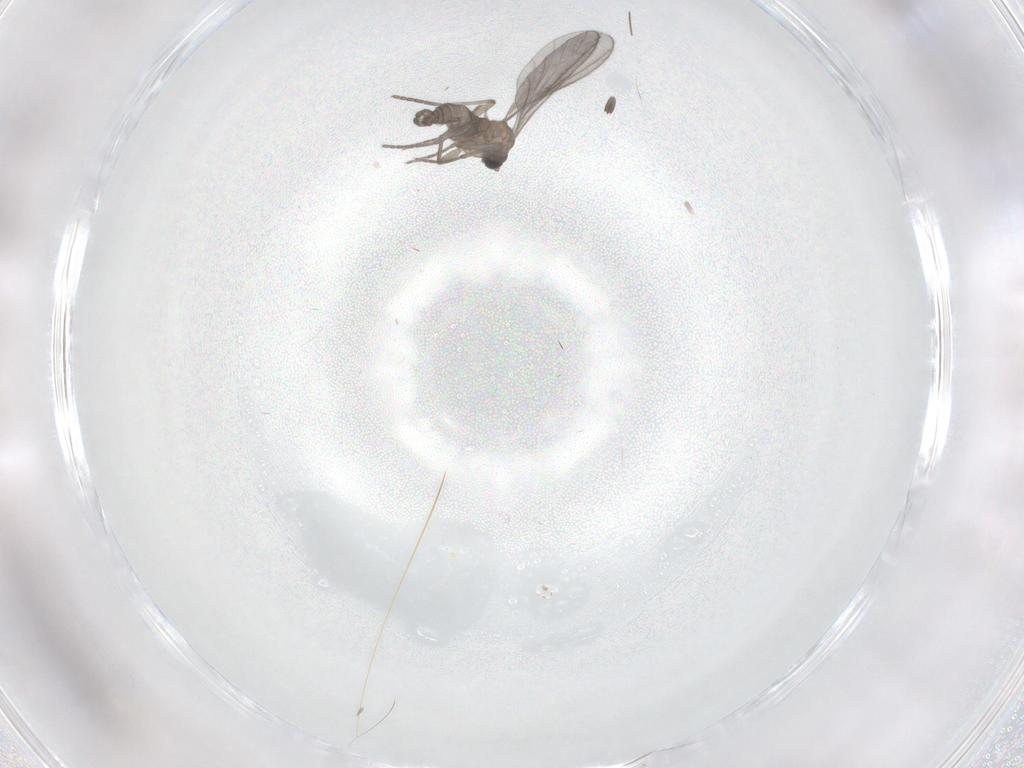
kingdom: Animalia
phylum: Arthropoda
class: Insecta
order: Diptera
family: Sciaridae
